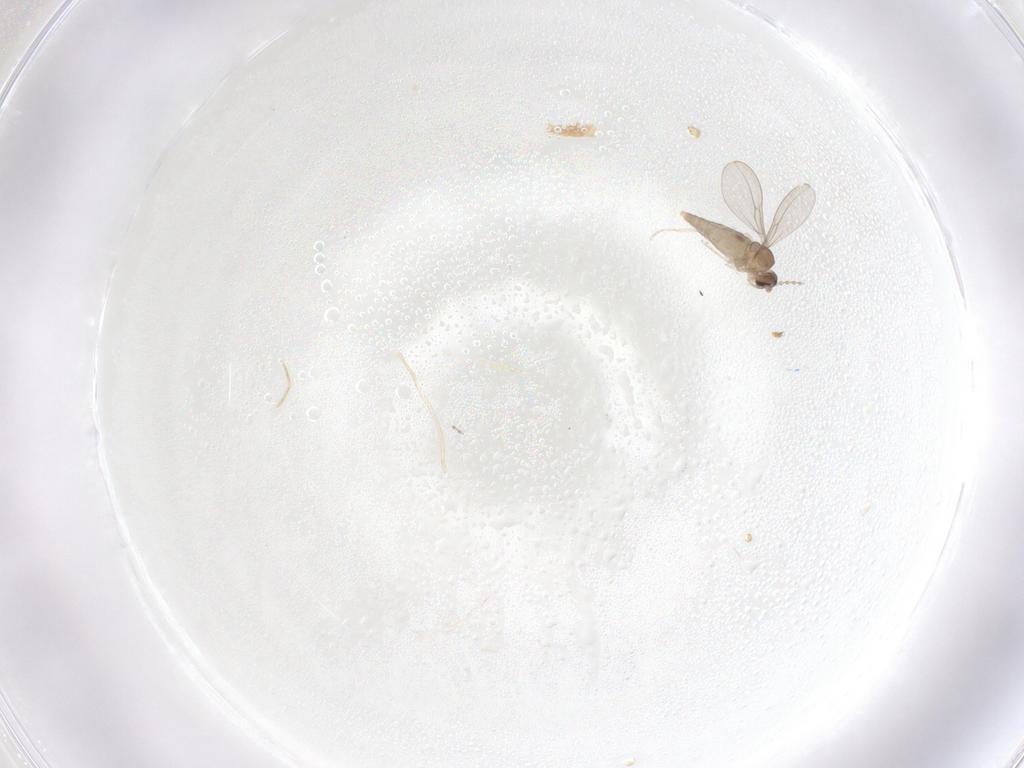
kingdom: Animalia
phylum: Arthropoda
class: Insecta
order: Diptera
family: Cecidomyiidae
